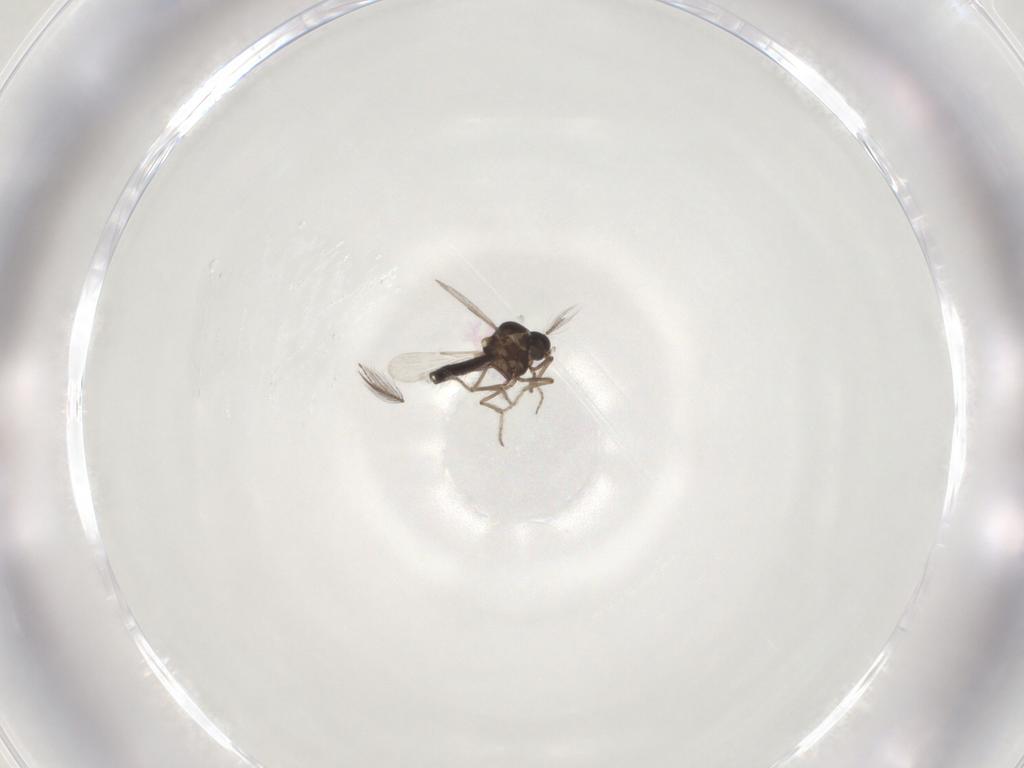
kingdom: Animalia
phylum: Arthropoda
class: Insecta
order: Diptera
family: Ceratopogonidae
